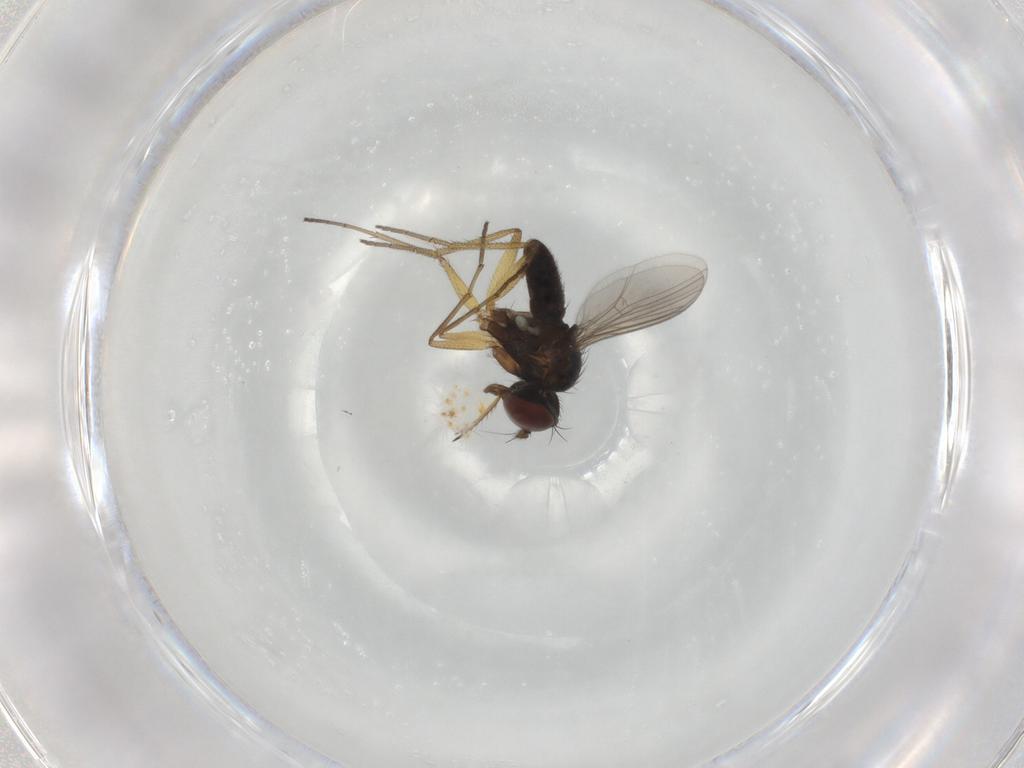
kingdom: Animalia
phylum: Arthropoda
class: Insecta
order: Diptera
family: Dolichopodidae
